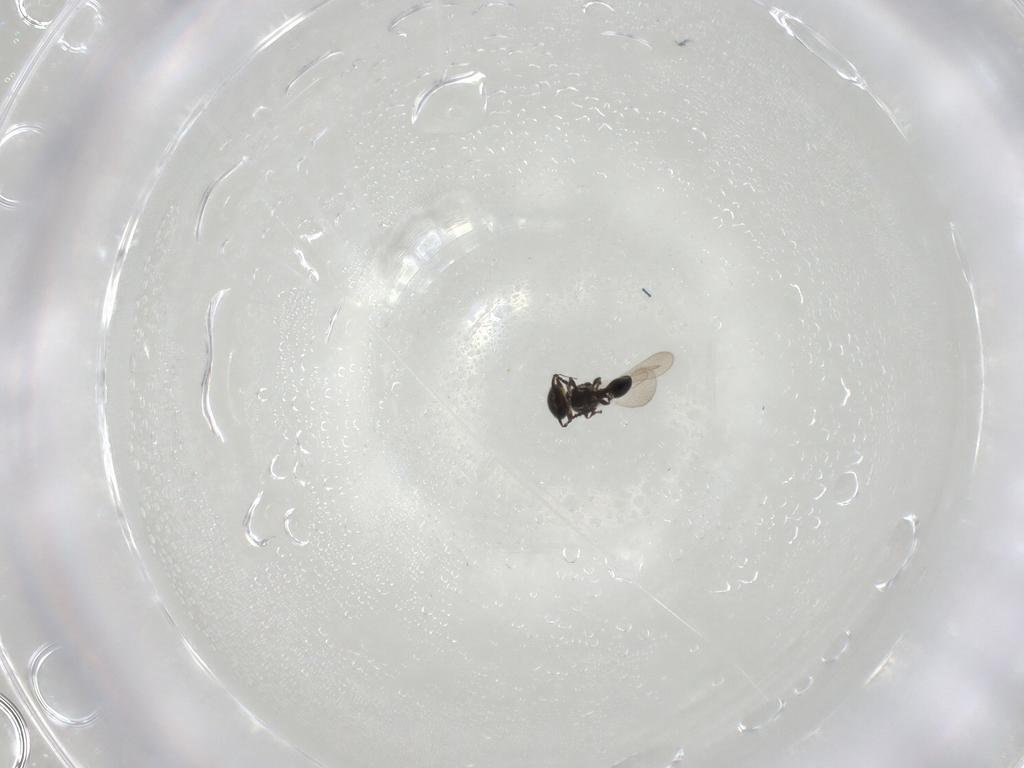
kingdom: Animalia
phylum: Arthropoda
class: Insecta
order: Hymenoptera
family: Platygastridae
